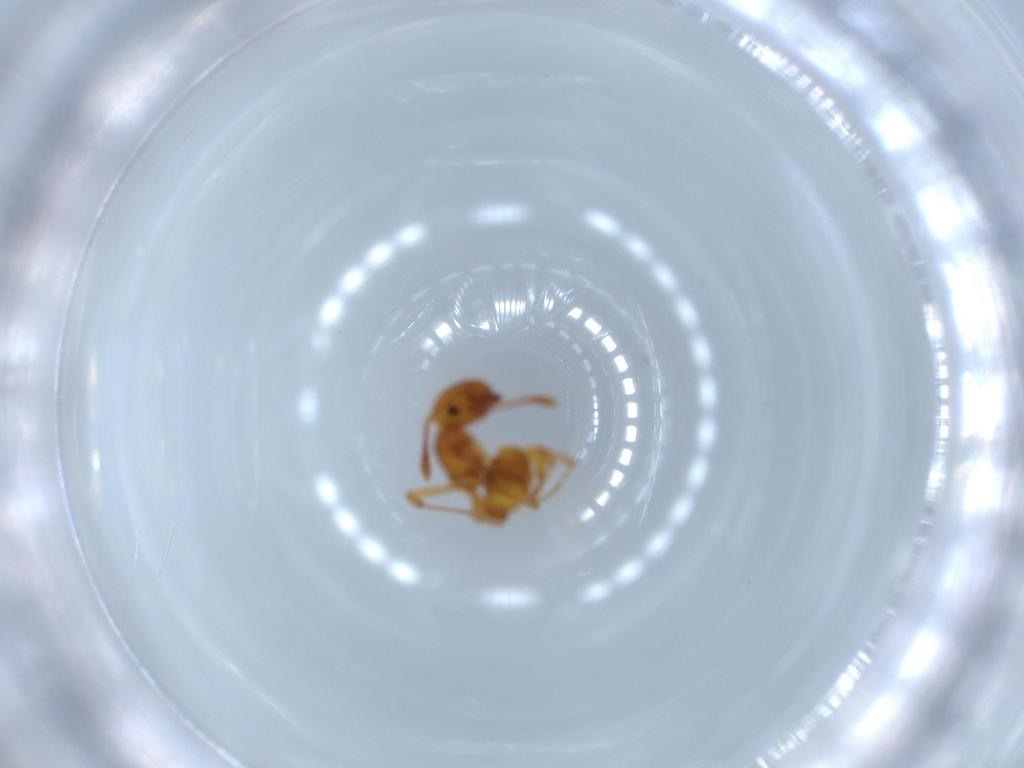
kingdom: Animalia
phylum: Arthropoda
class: Insecta
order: Hymenoptera
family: Formicidae
